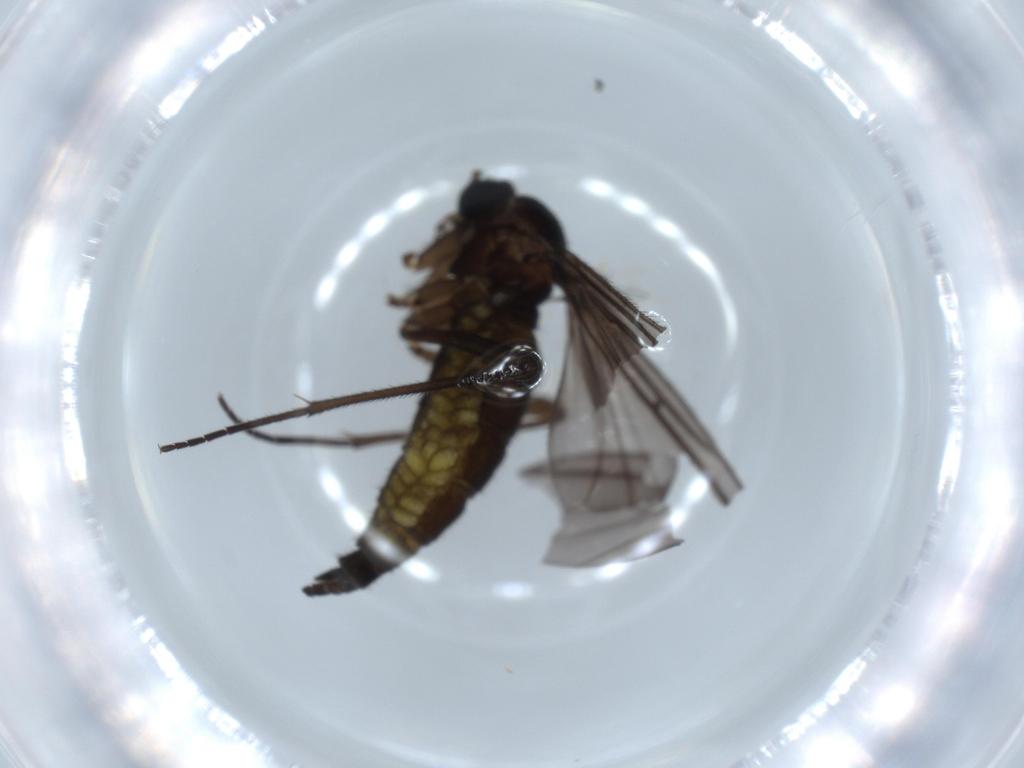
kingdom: Animalia
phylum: Arthropoda
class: Insecta
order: Diptera
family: Sciaridae
